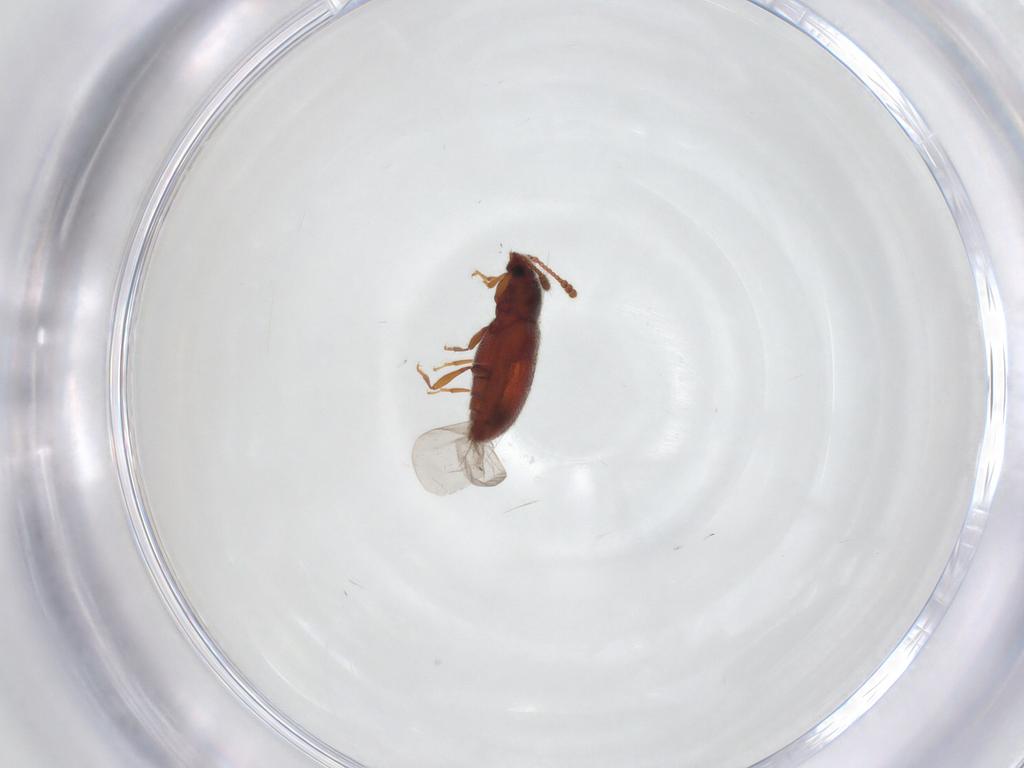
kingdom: Animalia
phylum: Arthropoda
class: Insecta
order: Coleoptera
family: Cryptophagidae
